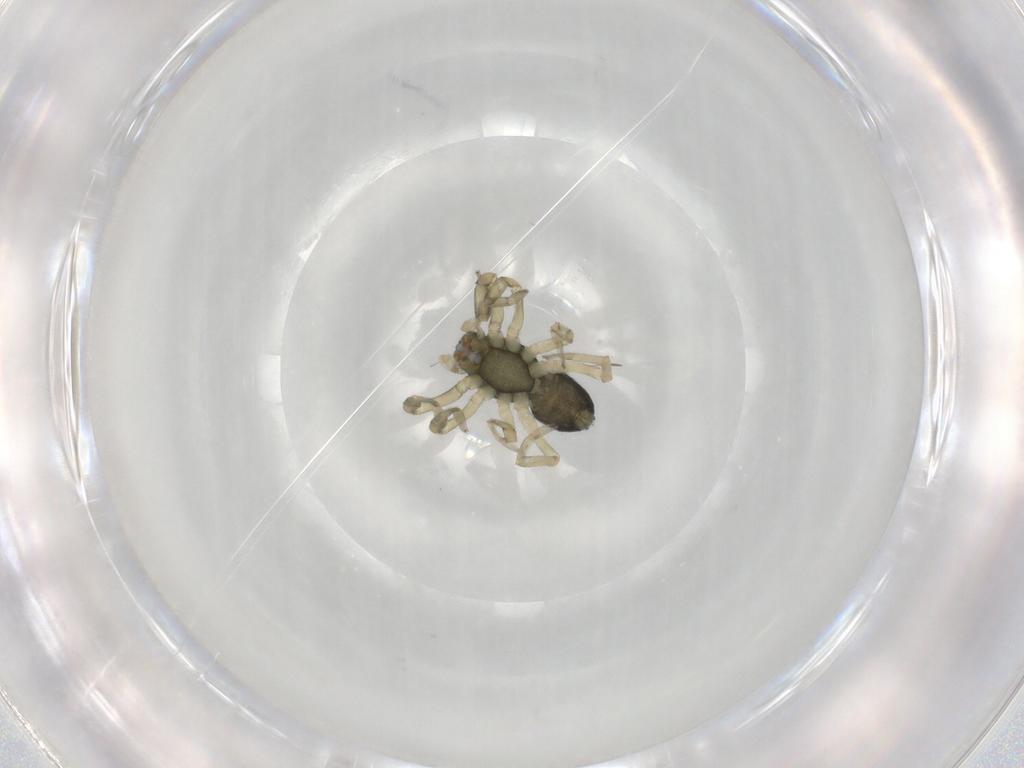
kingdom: Animalia
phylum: Arthropoda
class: Arachnida
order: Araneae
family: Trachelidae
